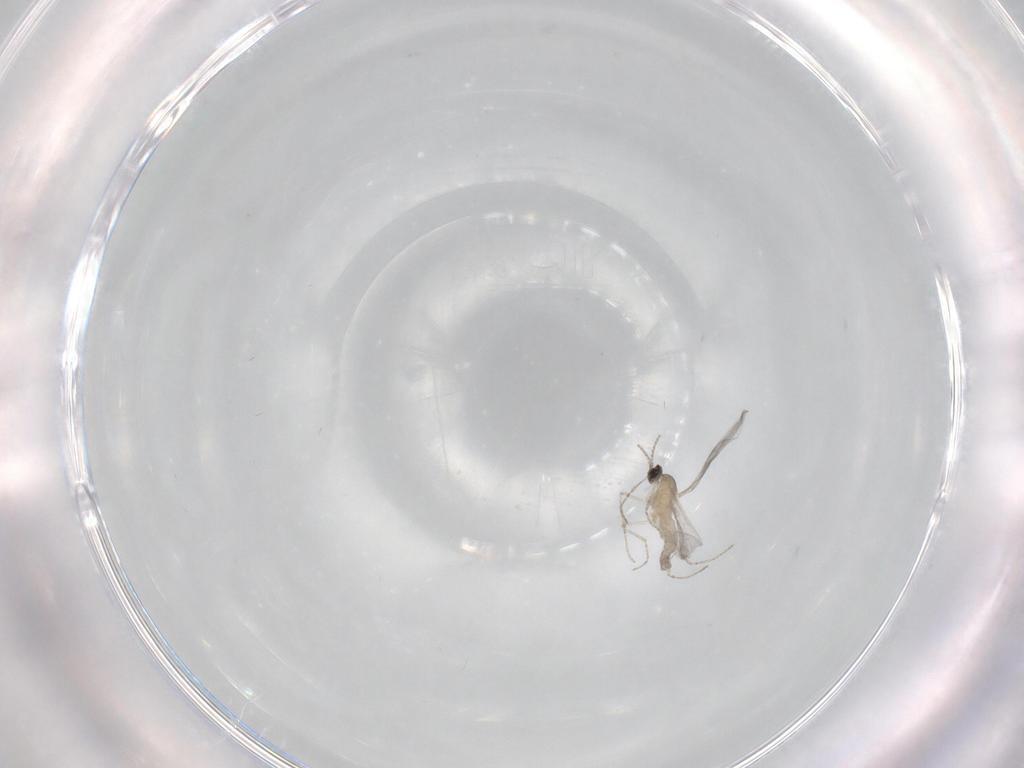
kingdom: Animalia
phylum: Arthropoda
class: Insecta
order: Diptera
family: Cecidomyiidae
